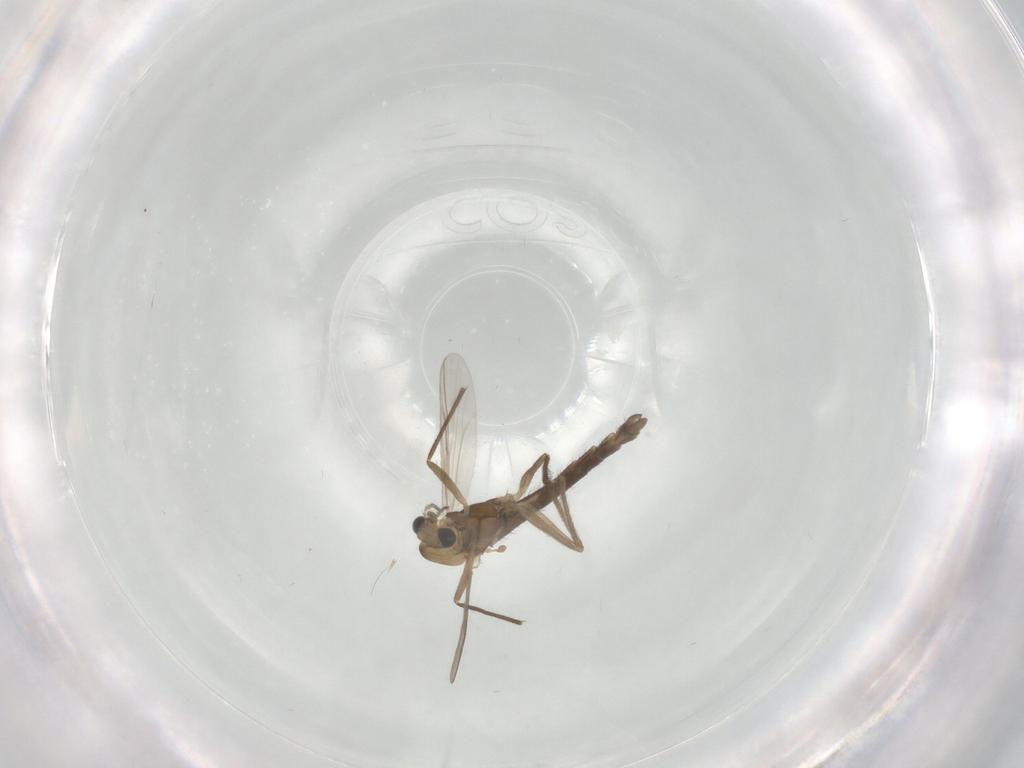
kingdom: Animalia
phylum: Arthropoda
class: Insecta
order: Diptera
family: Chironomidae
